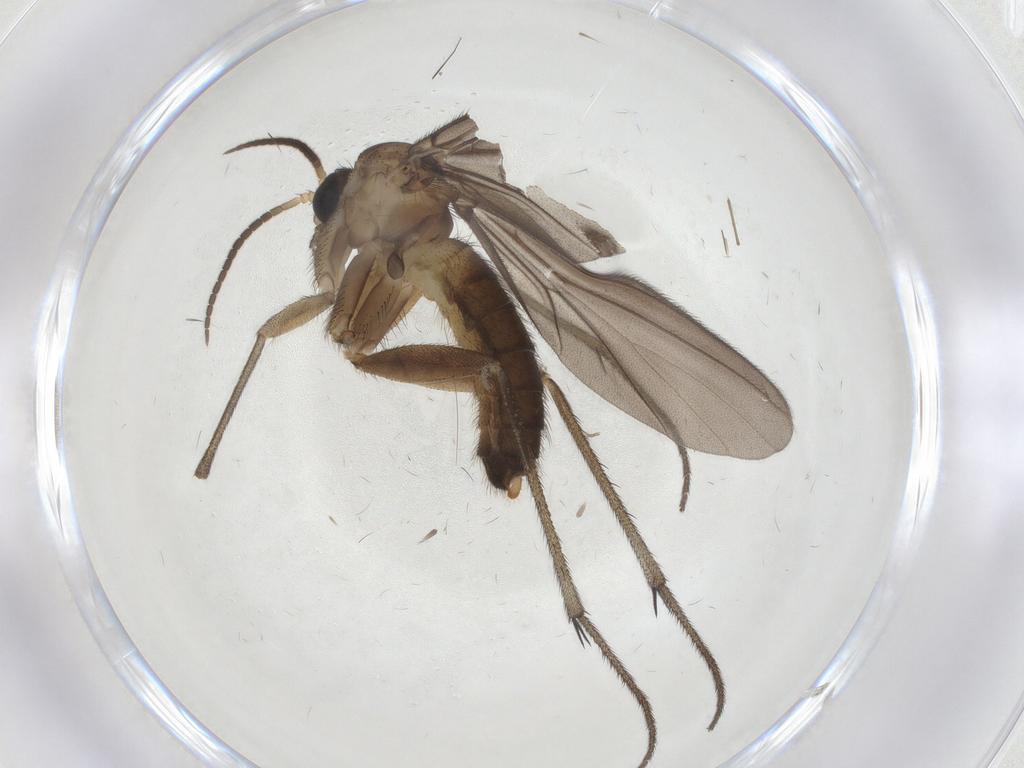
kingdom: Animalia
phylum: Arthropoda
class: Insecta
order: Diptera
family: Diadocidiidae
